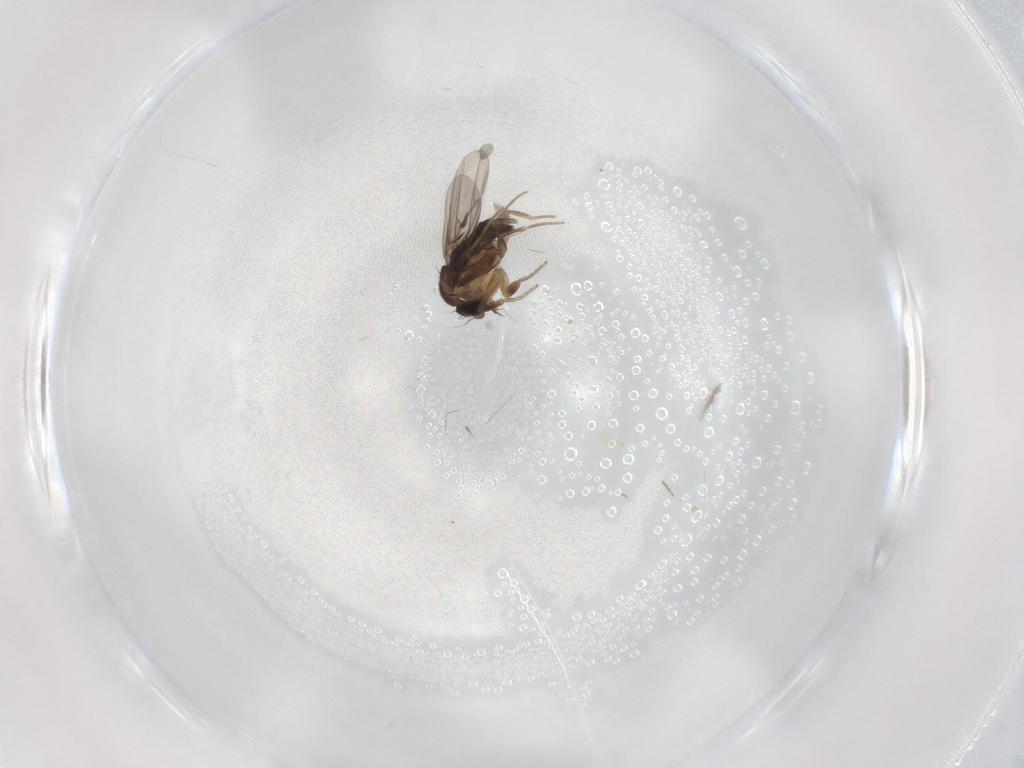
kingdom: Animalia
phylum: Arthropoda
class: Insecta
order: Diptera
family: Phoridae
